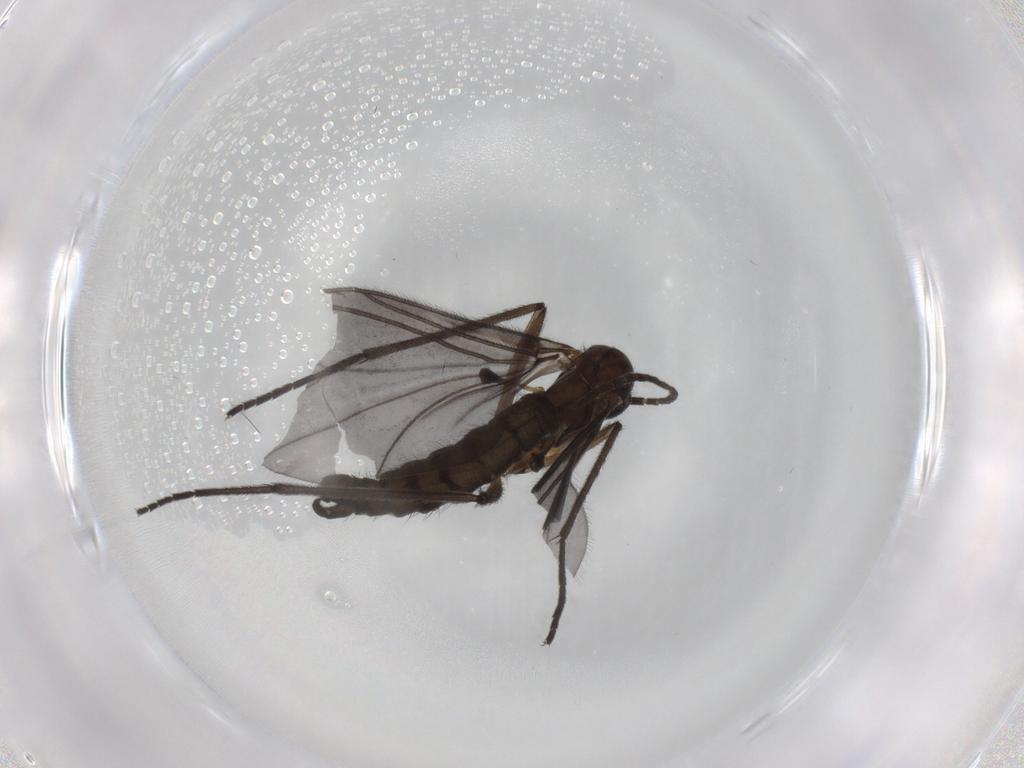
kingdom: Animalia
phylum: Arthropoda
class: Insecta
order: Diptera
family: Sciaridae
